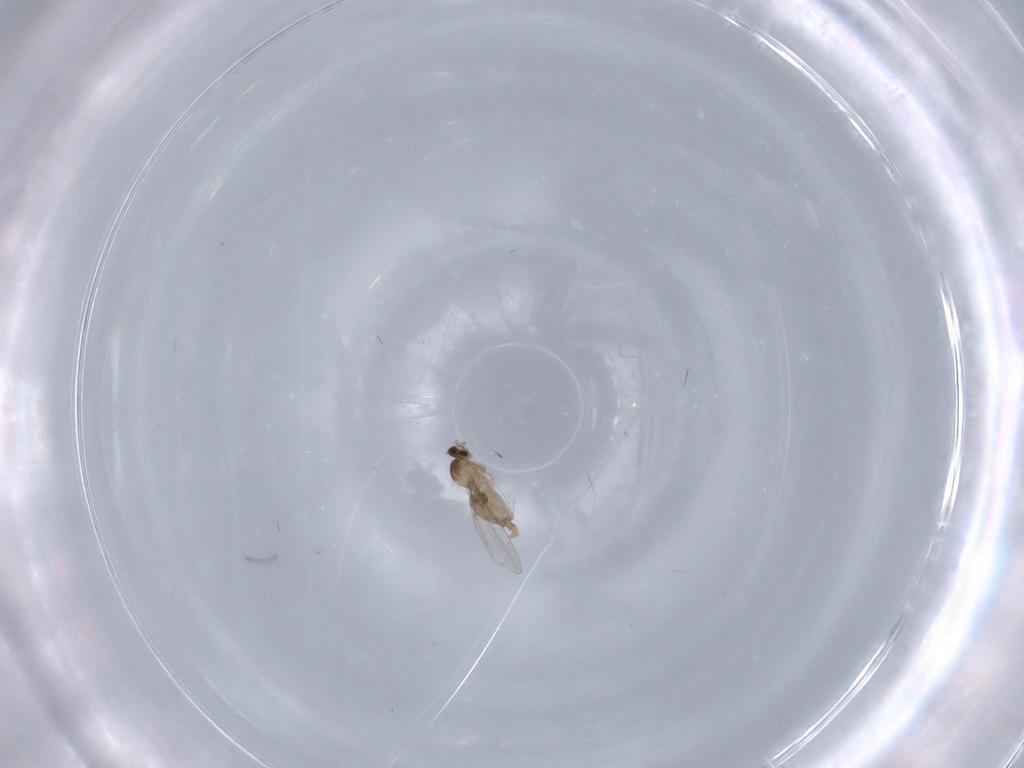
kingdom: Animalia
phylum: Arthropoda
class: Insecta
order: Diptera
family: Cecidomyiidae
